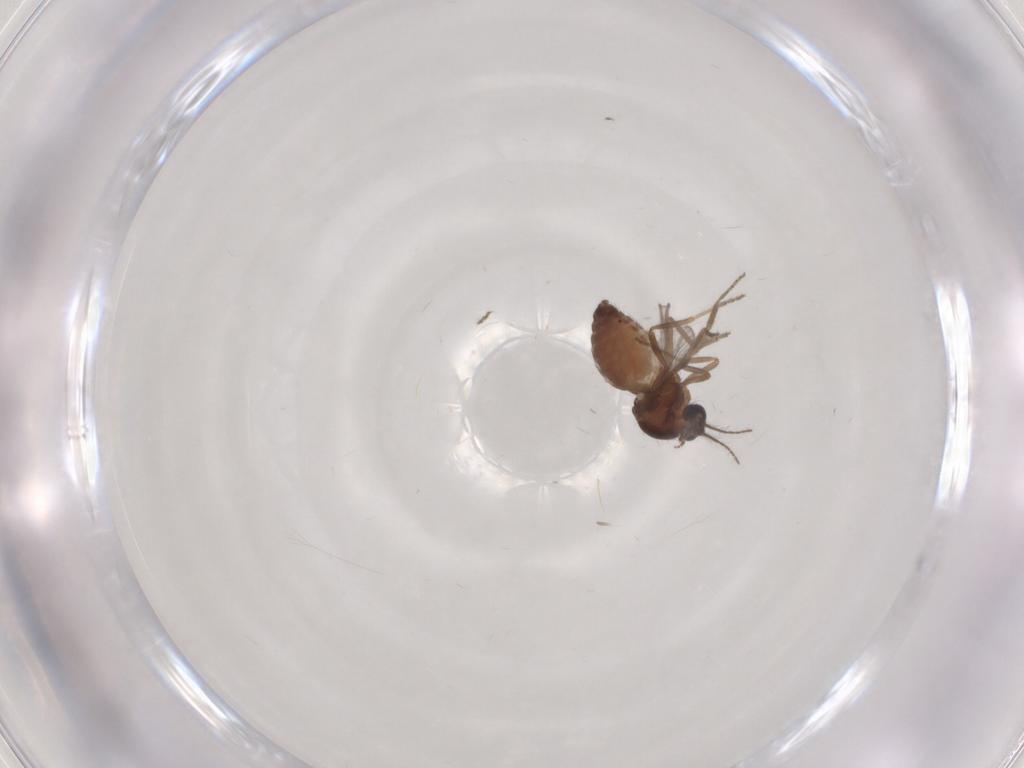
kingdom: Animalia
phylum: Arthropoda
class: Insecta
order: Diptera
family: Cecidomyiidae
